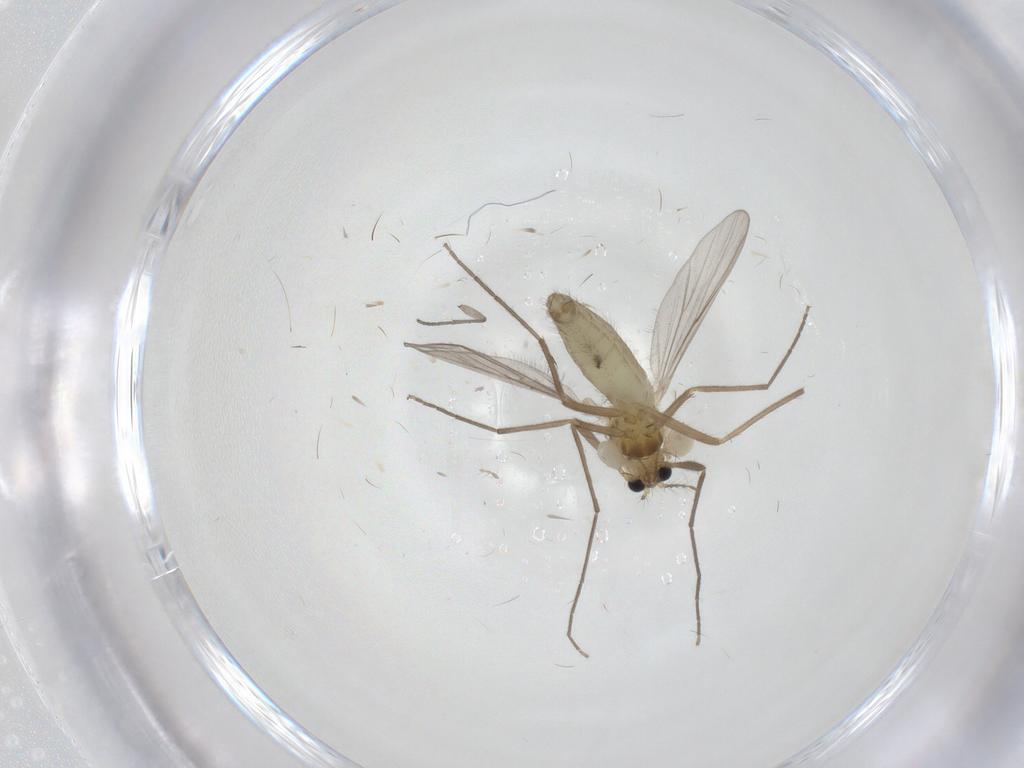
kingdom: Animalia
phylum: Arthropoda
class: Insecta
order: Diptera
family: Chironomidae
